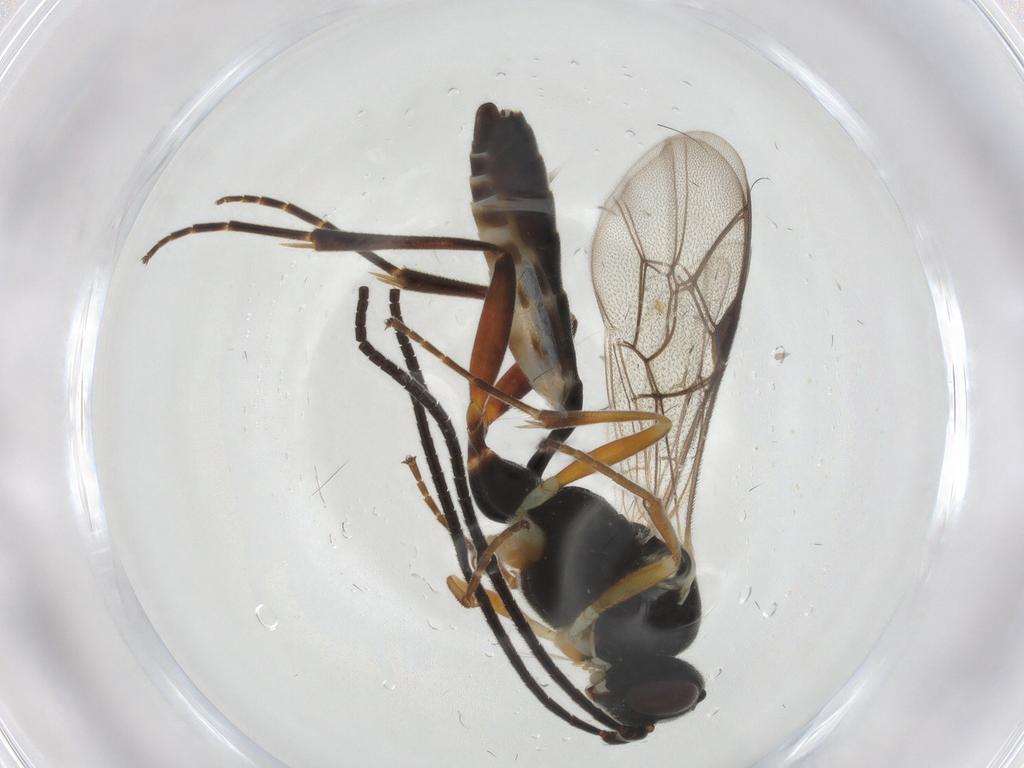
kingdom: Animalia
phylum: Arthropoda
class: Insecta
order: Hymenoptera
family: Ichneumonidae
